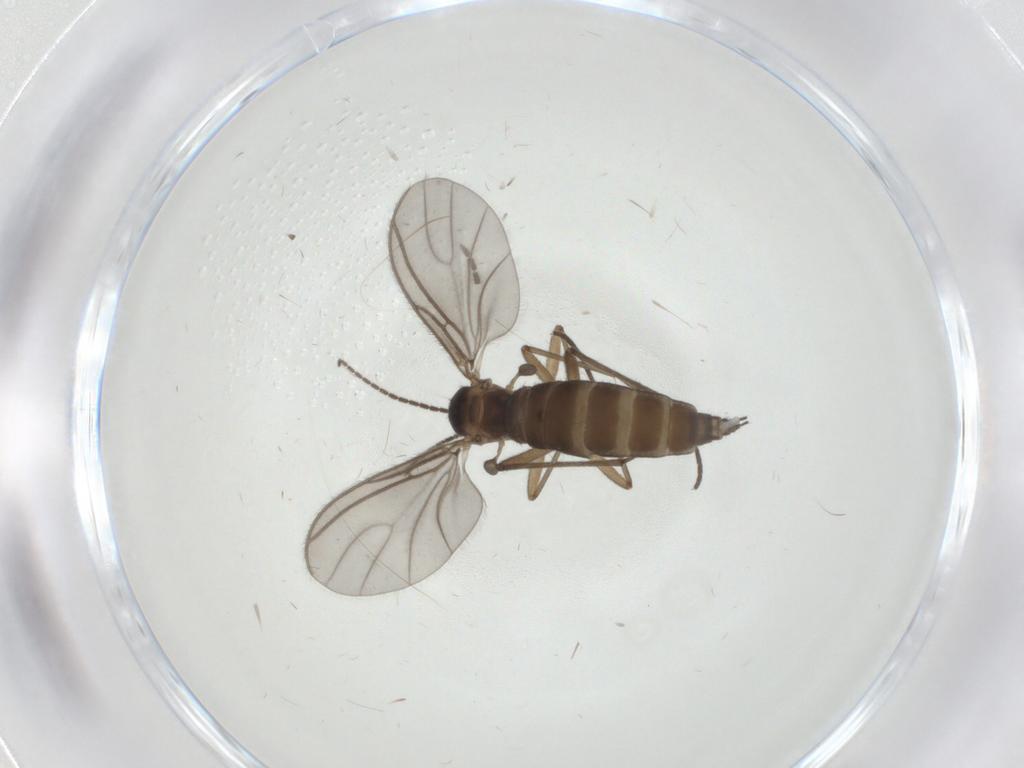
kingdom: Animalia
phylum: Arthropoda
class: Insecta
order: Diptera
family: Sciaridae
